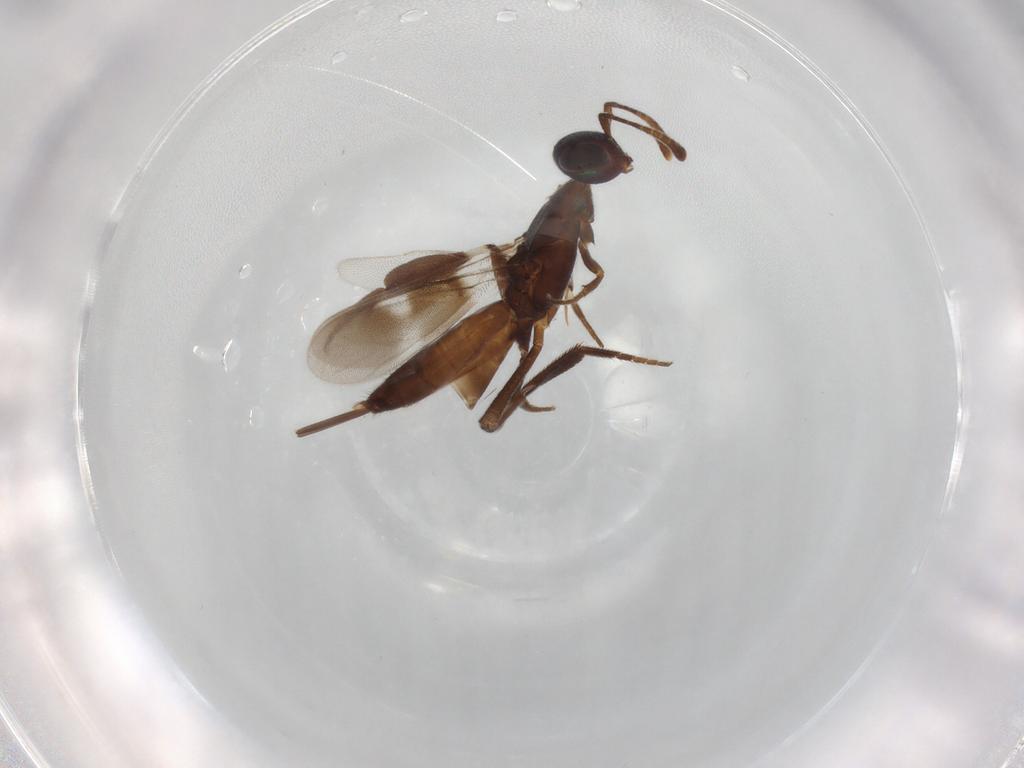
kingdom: Animalia
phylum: Arthropoda
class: Insecta
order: Hymenoptera
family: Eupelmidae
